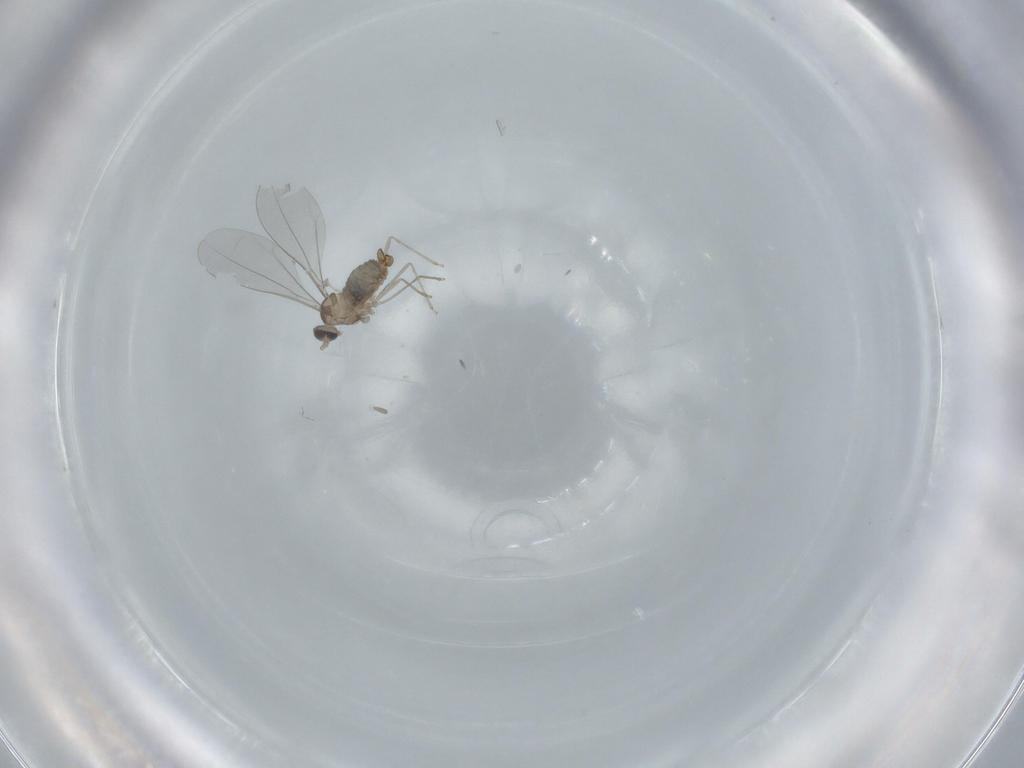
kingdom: Animalia
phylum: Arthropoda
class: Insecta
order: Diptera
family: Cecidomyiidae
